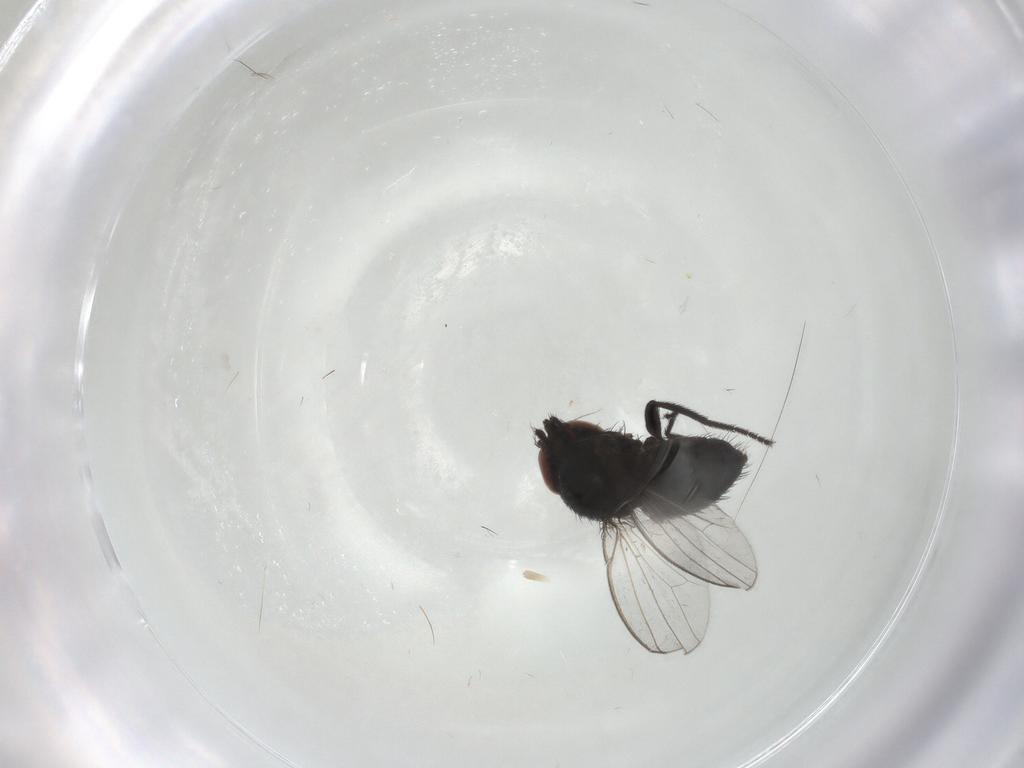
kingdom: Animalia
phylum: Arthropoda
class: Insecta
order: Diptera
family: Milichiidae
